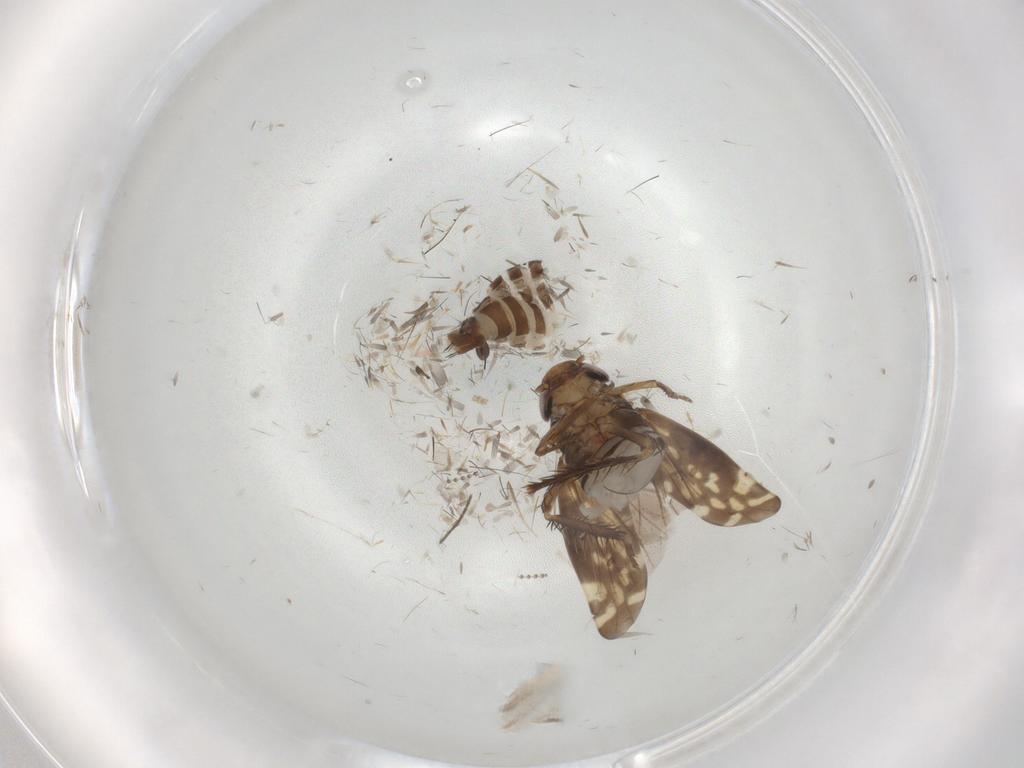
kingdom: Animalia
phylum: Arthropoda
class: Insecta
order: Hemiptera
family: Cicadellidae
